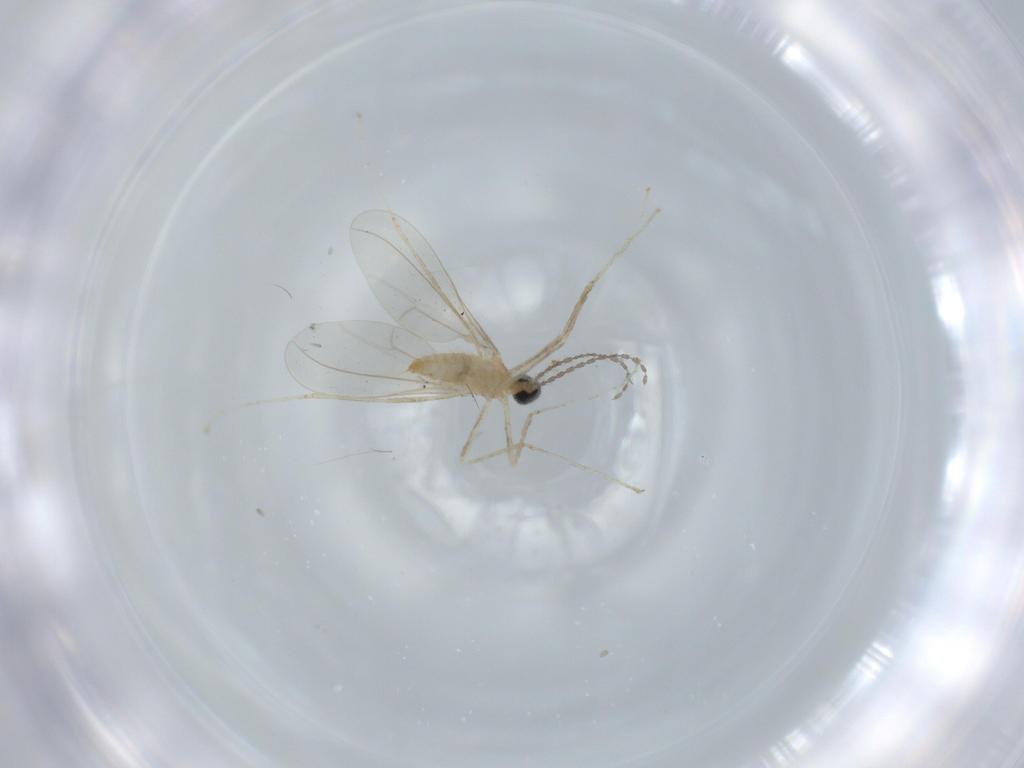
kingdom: Animalia
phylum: Arthropoda
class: Insecta
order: Diptera
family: Cecidomyiidae
